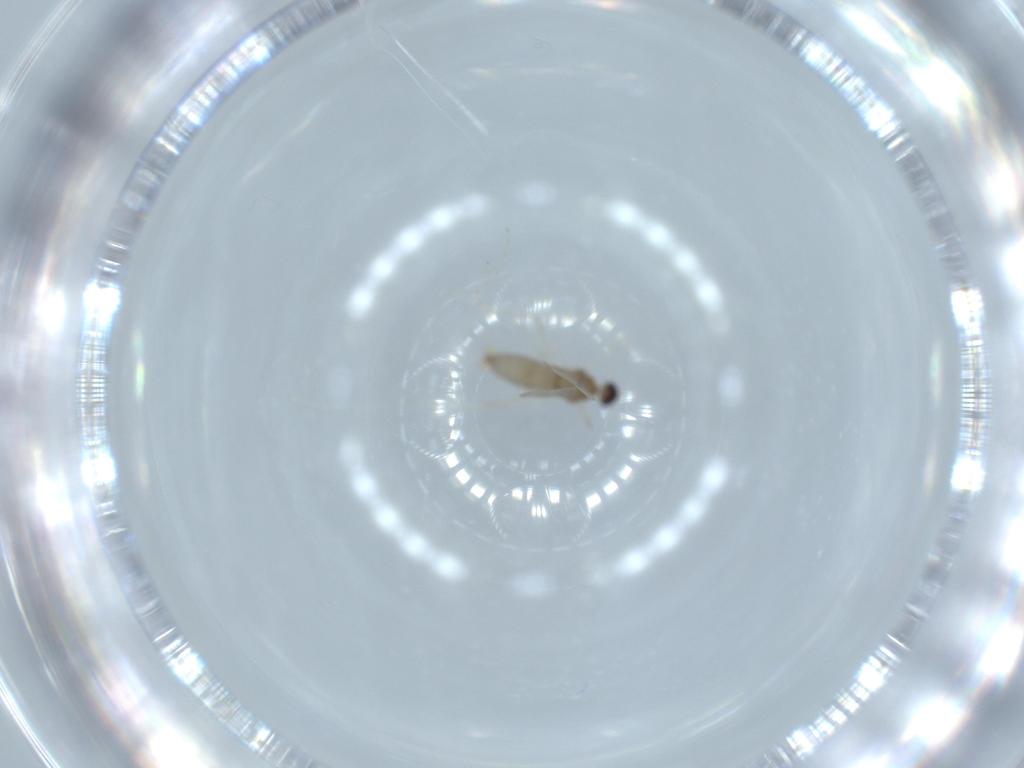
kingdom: Animalia
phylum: Arthropoda
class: Insecta
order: Diptera
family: Cecidomyiidae
